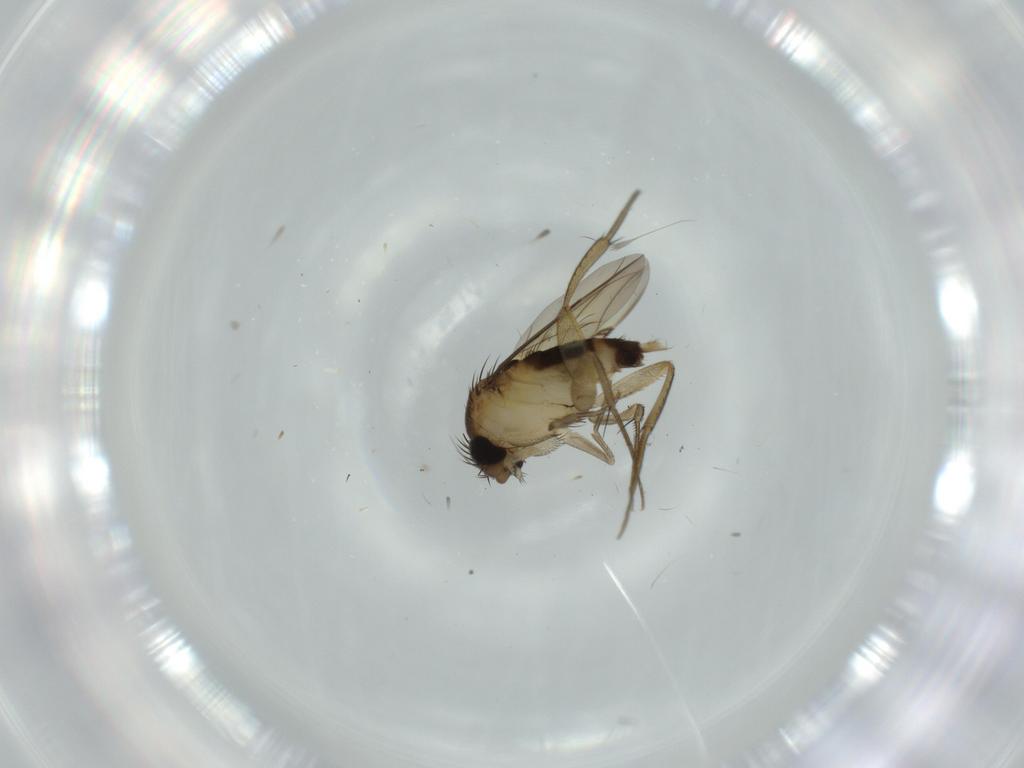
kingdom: Animalia
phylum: Arthropoda
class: Insecta
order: Diptera
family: Phoridae
